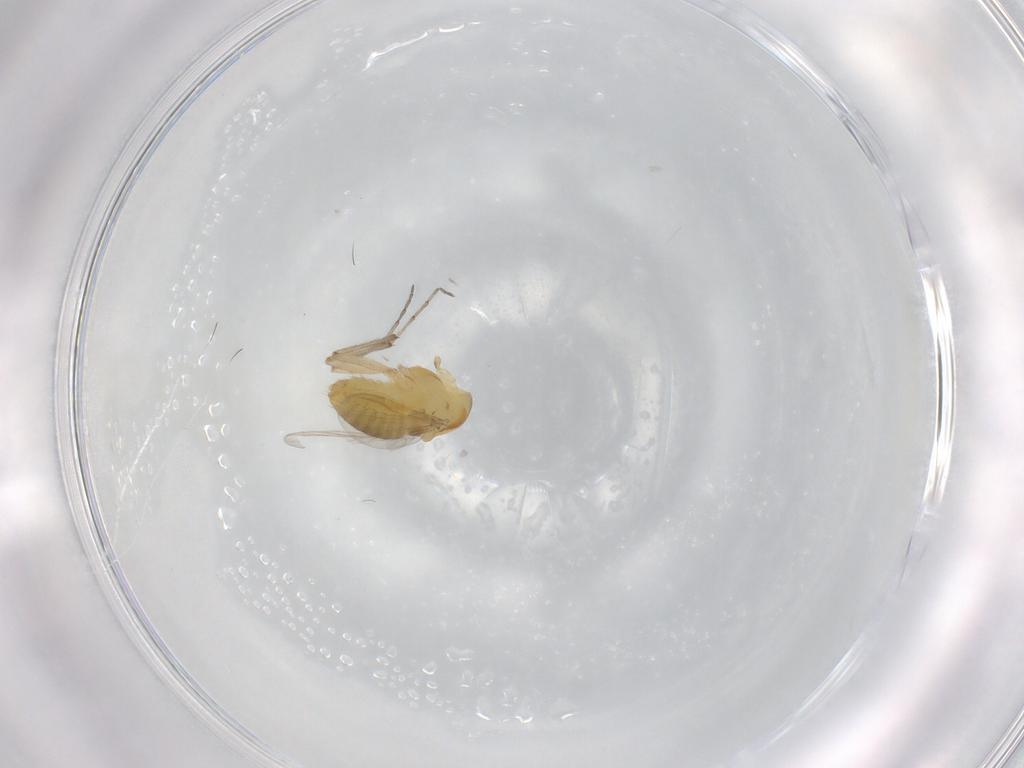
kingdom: Animalia
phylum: Arthropoda
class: Insecta
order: Diptera
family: Chironomidae
